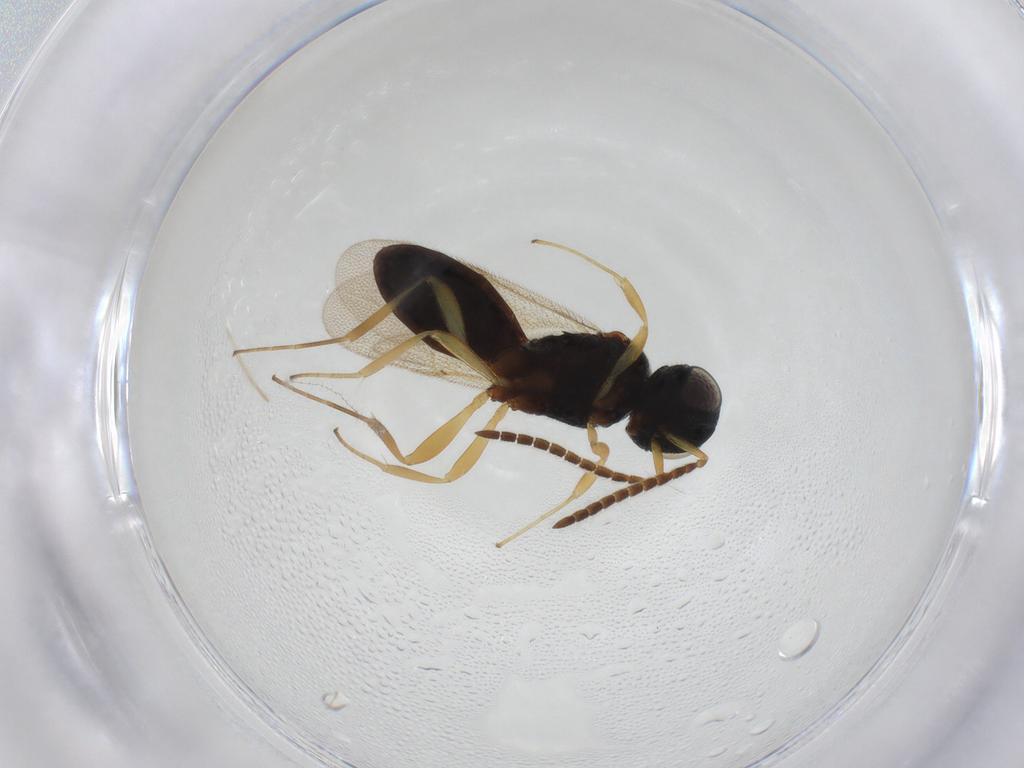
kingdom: Animalia
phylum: Arthropoda
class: Insecta
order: Hymenoptera
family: Scelionidae
